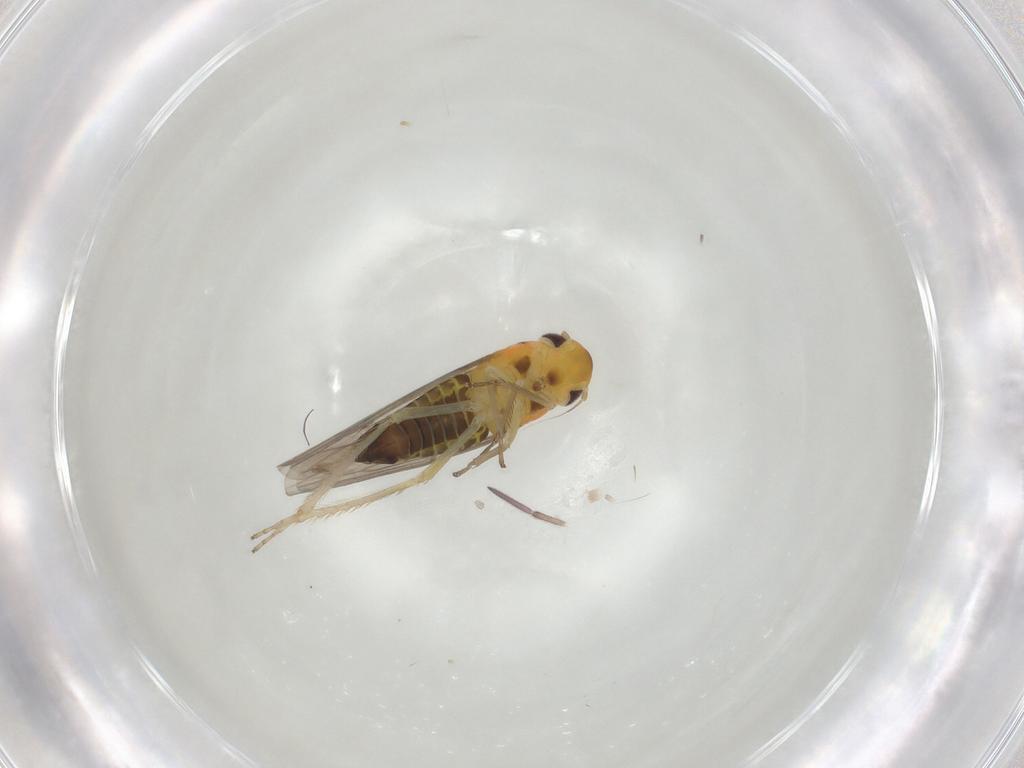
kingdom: Animalia
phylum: Arthropoda
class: Insecta
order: Hemiptera
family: Cicadellidae
